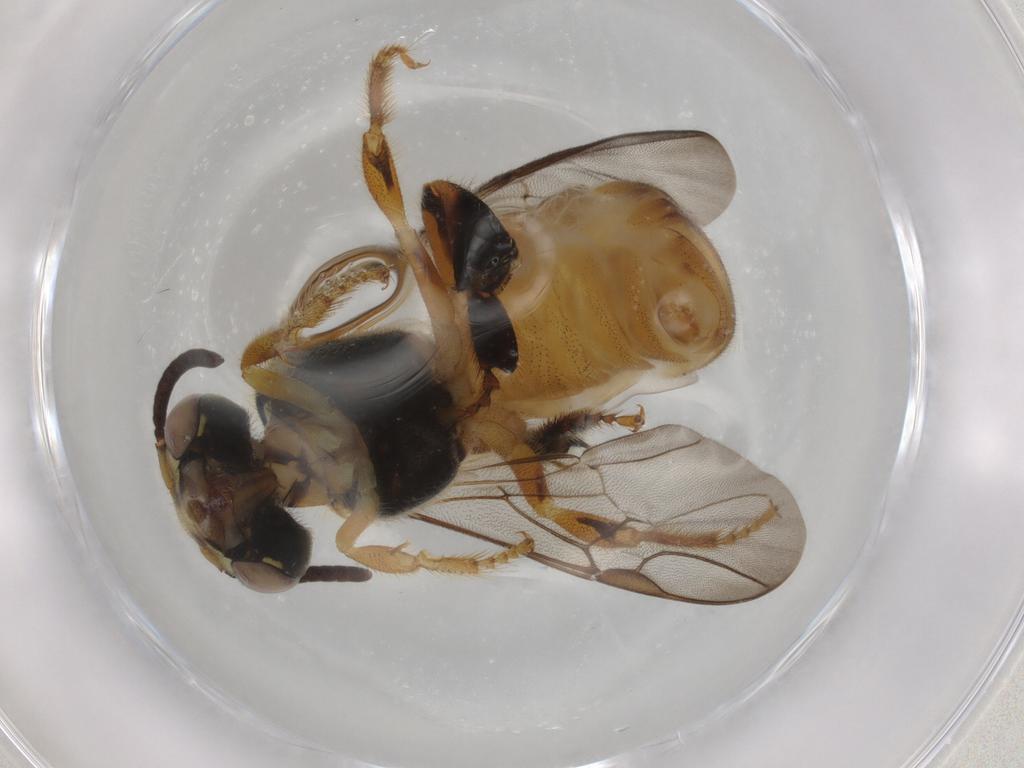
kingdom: Animalia
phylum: Arthropoda
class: Insecta
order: Hymenoptera
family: Apidae
